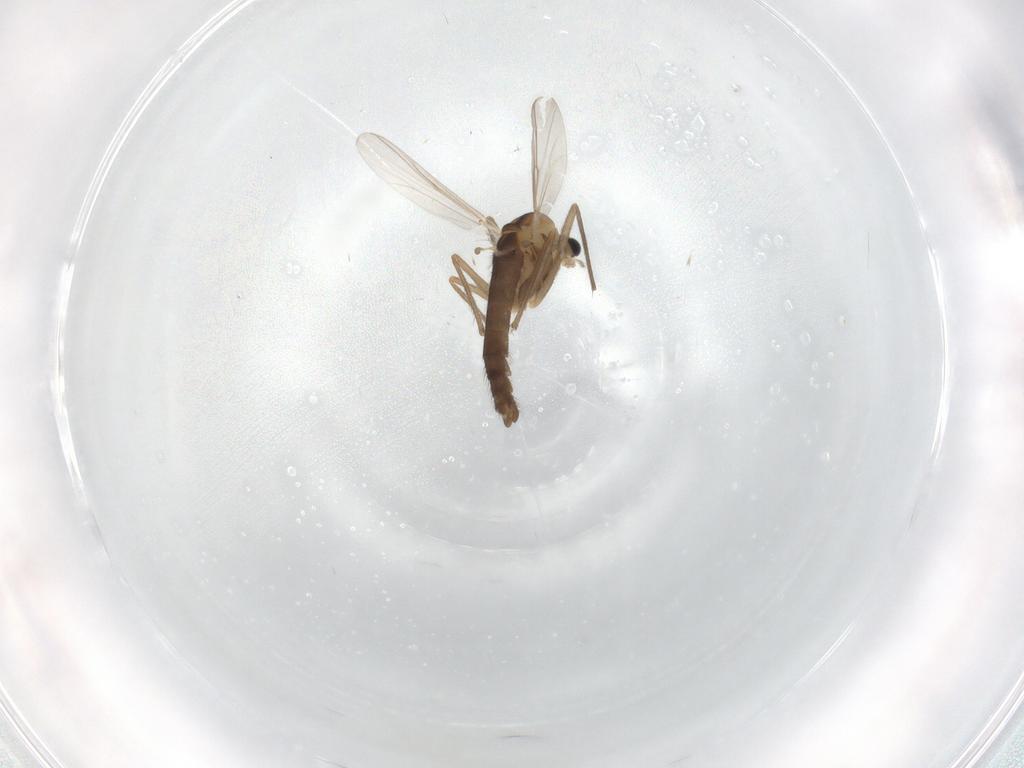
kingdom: Animalia
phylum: Arthropoda
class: Insecta
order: Diptera
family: Chironomidae
